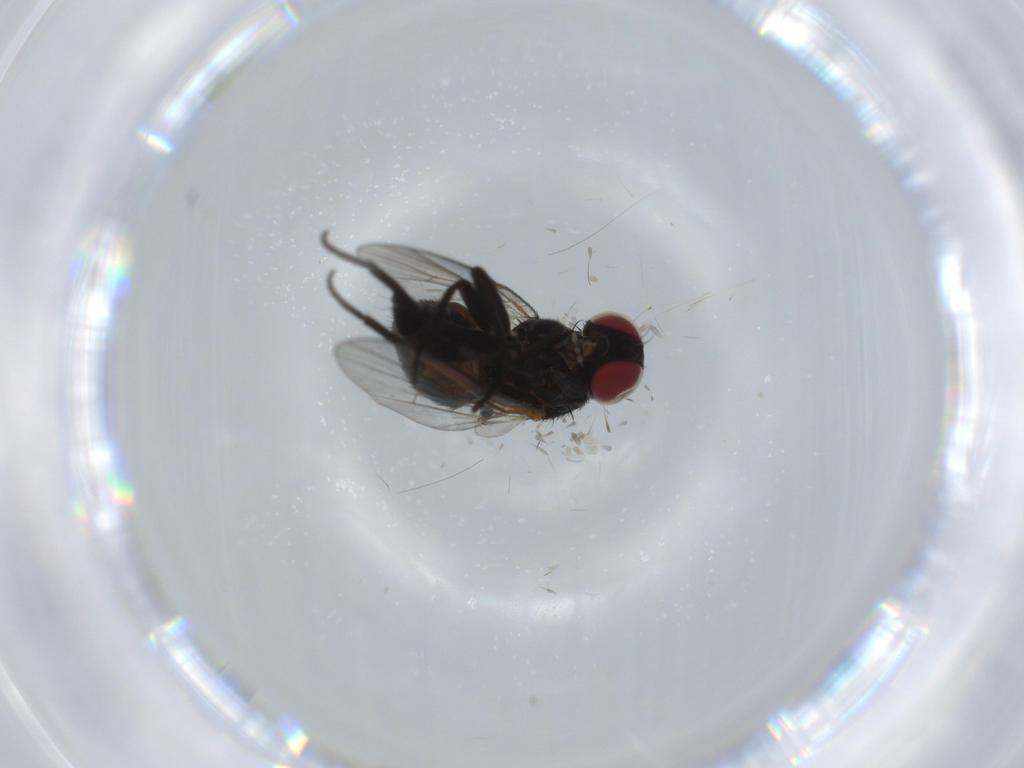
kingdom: Animalia
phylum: Arthropoda
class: Insecta
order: Diptera
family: Agromyzidae
